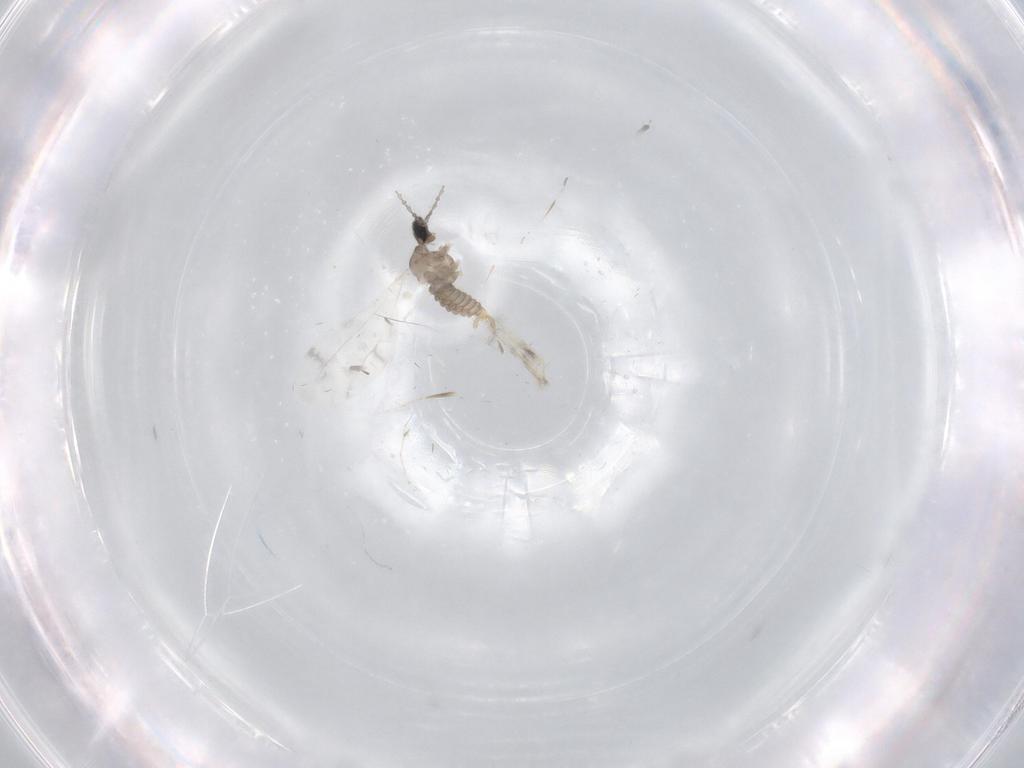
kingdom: Animalia
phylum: Arthropoda
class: Insecta
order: Diptera
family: Cecidomyiidae
